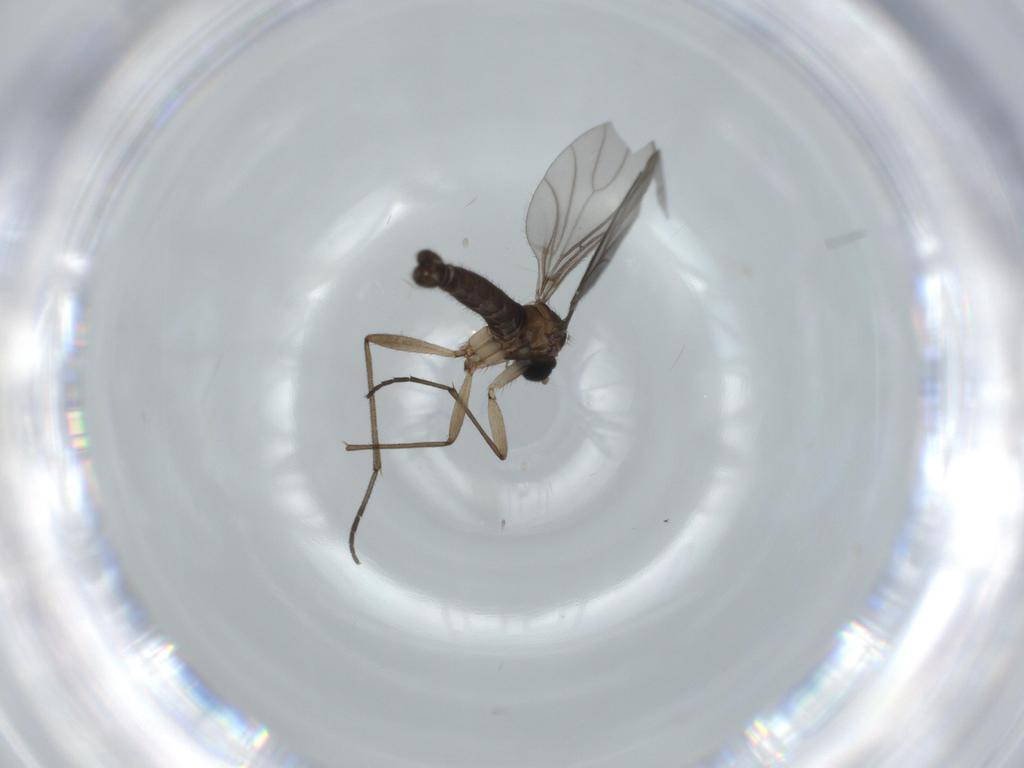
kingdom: Animalia
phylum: Arthropoda
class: Insecta
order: Diptera
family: Sciaridae
